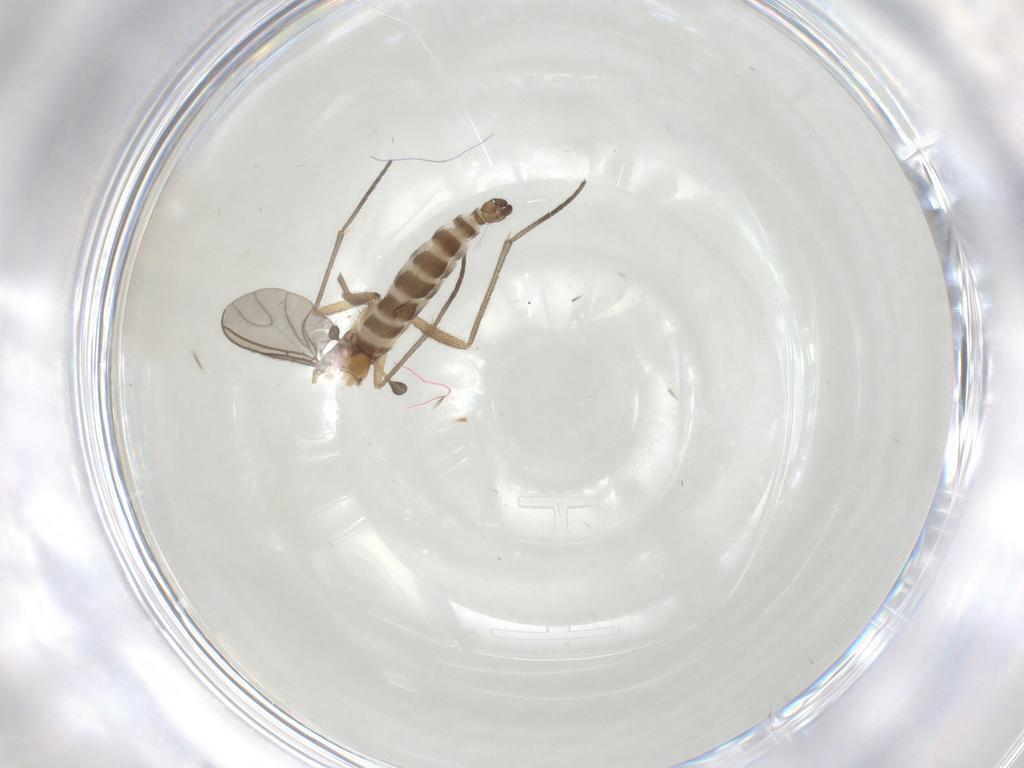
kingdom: Animalia
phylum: Arthropoda
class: Insecta
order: Diptera
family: Sciaridae
